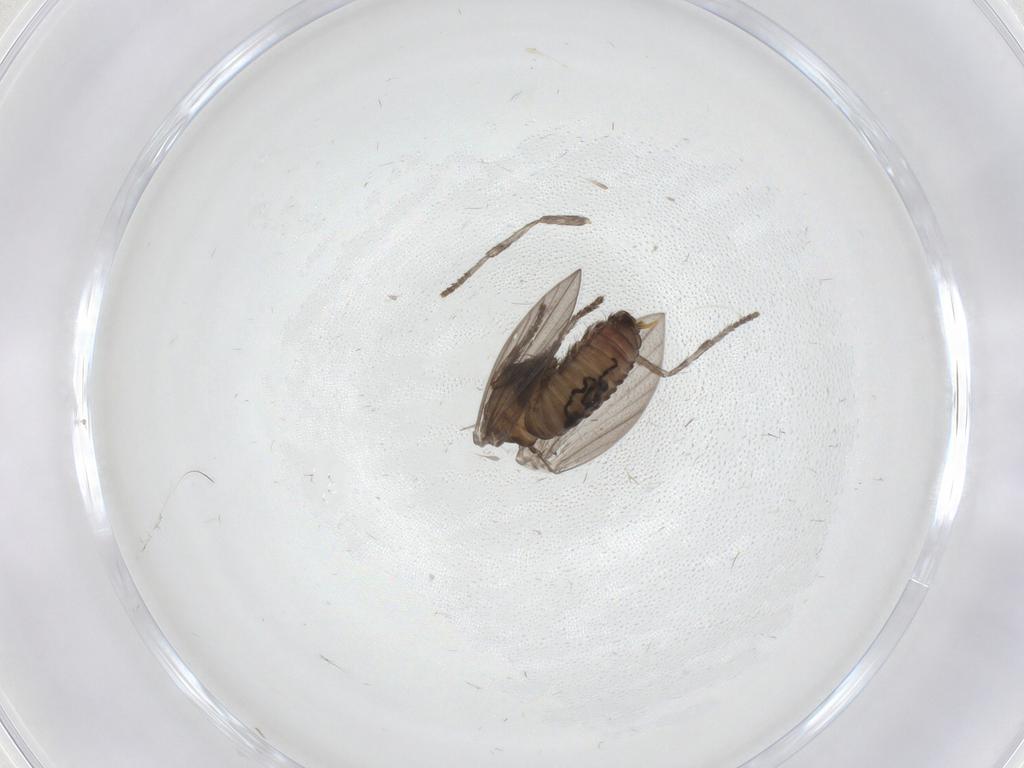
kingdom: Animalia
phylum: Arthropoda
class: Insecta
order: Diptera
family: Psychodidae
